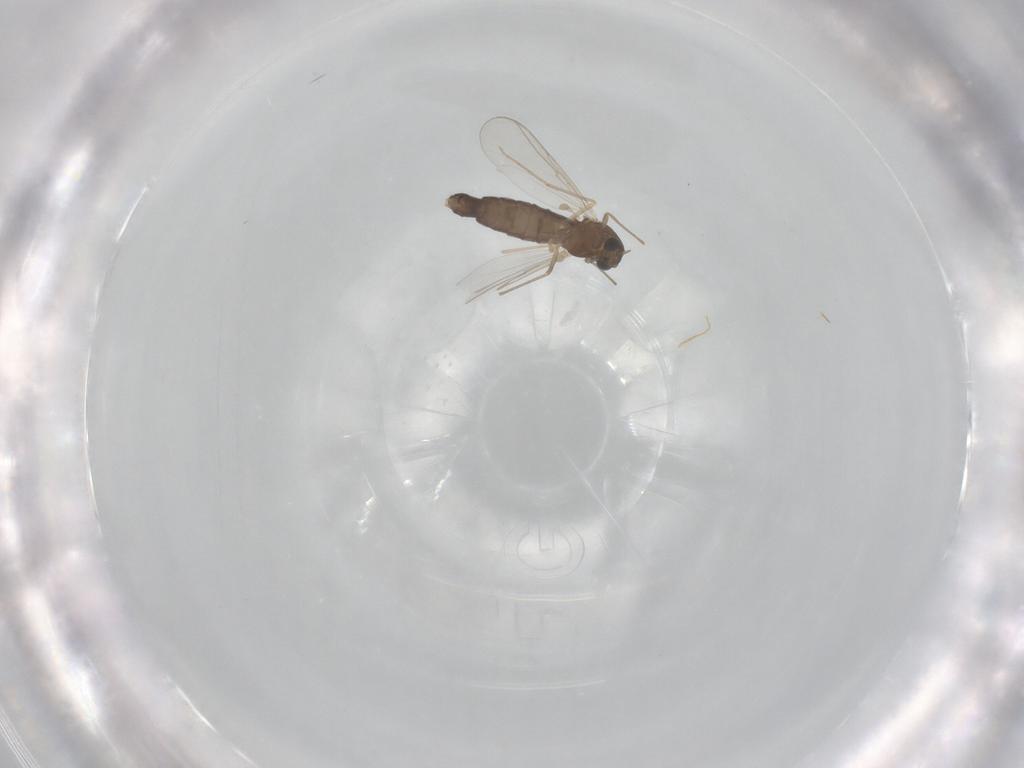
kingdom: Animalia
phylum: Arthropoda
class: Insecta
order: Diptera
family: Chironomidae
